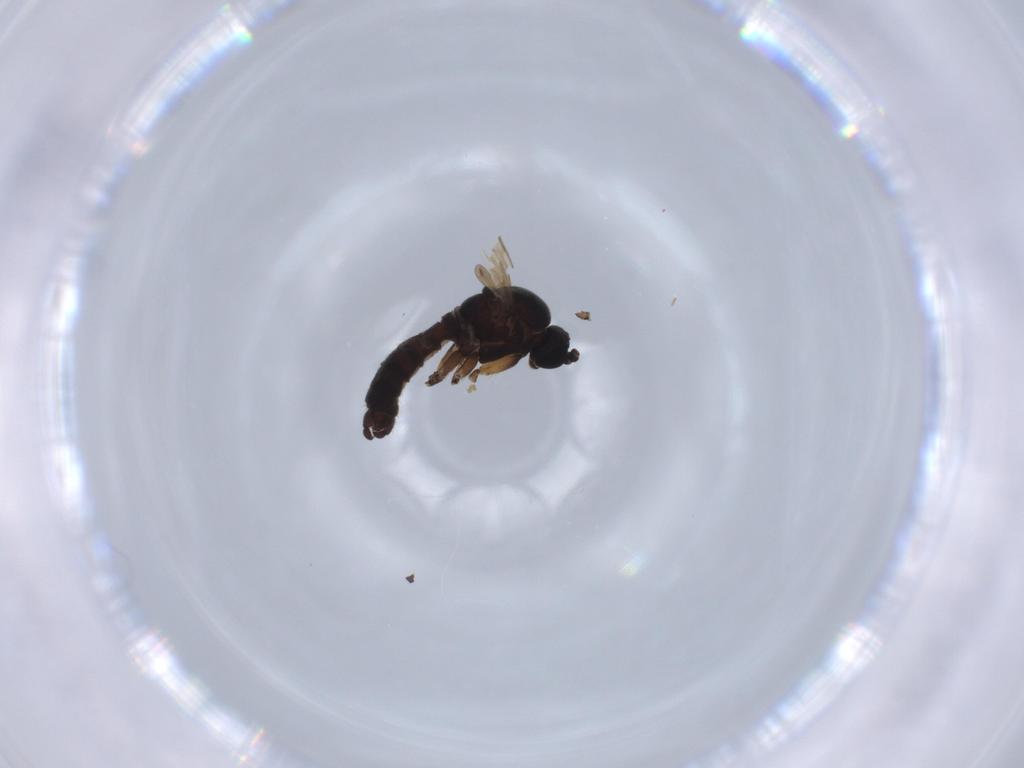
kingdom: Animalia
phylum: Arthropoda
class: Insecta
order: Diptera
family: Sciaridae
